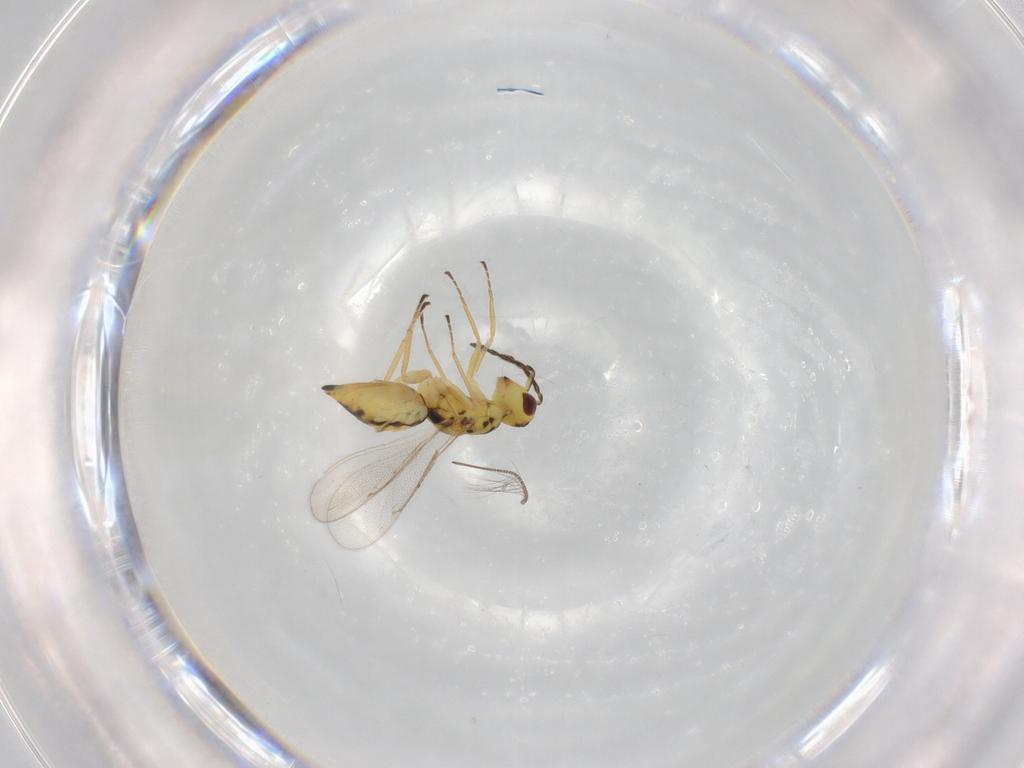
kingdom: Animalia
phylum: Arthropoda
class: Insecta
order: Hymenoptera
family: Eulophidae
